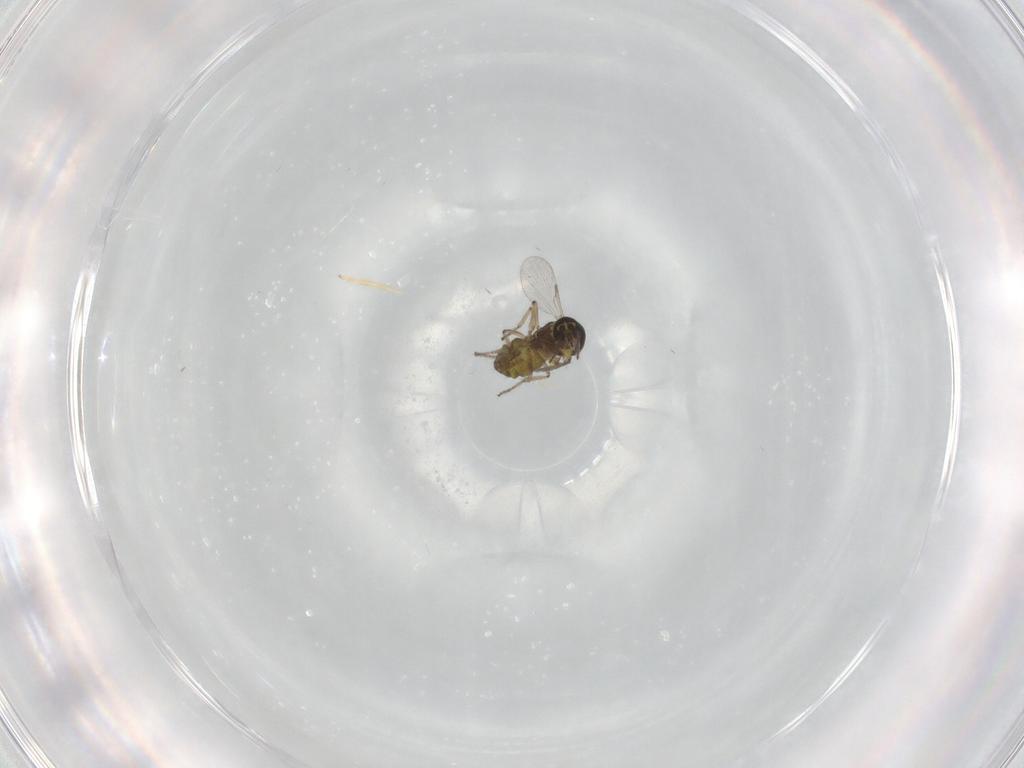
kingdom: Animalia
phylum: Arthropoda
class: Insecta
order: Diptera
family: Ceratopogonidae
